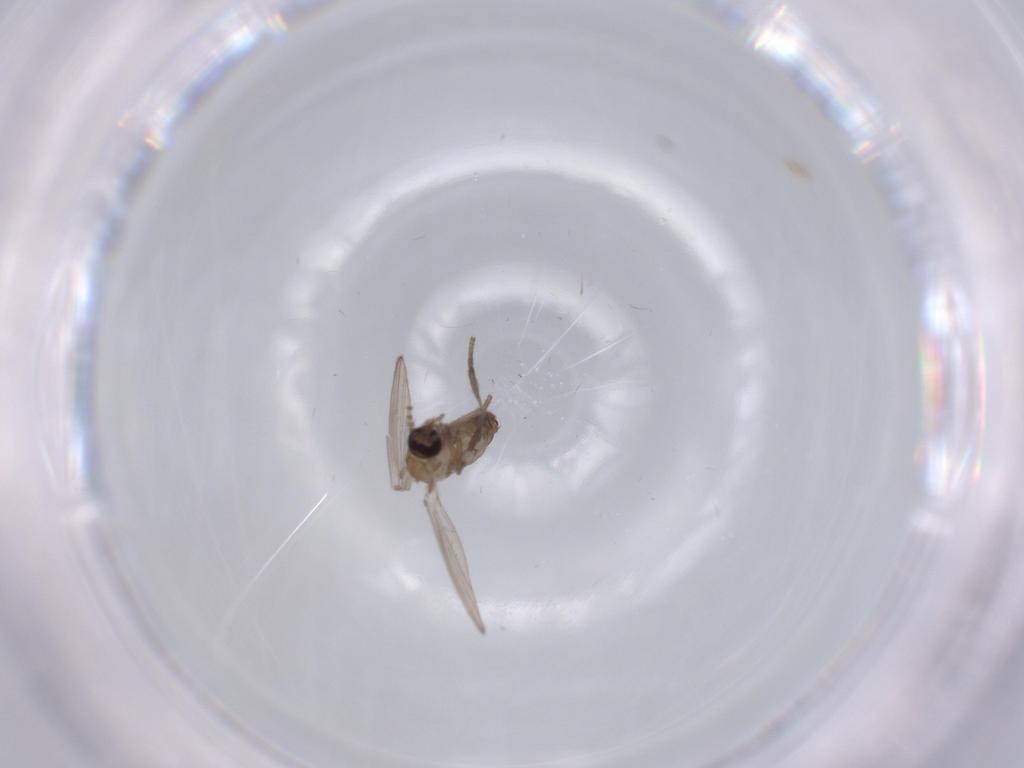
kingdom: Animalia
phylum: Arthropoda
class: Insecta
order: Diptera
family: Psychodidae
